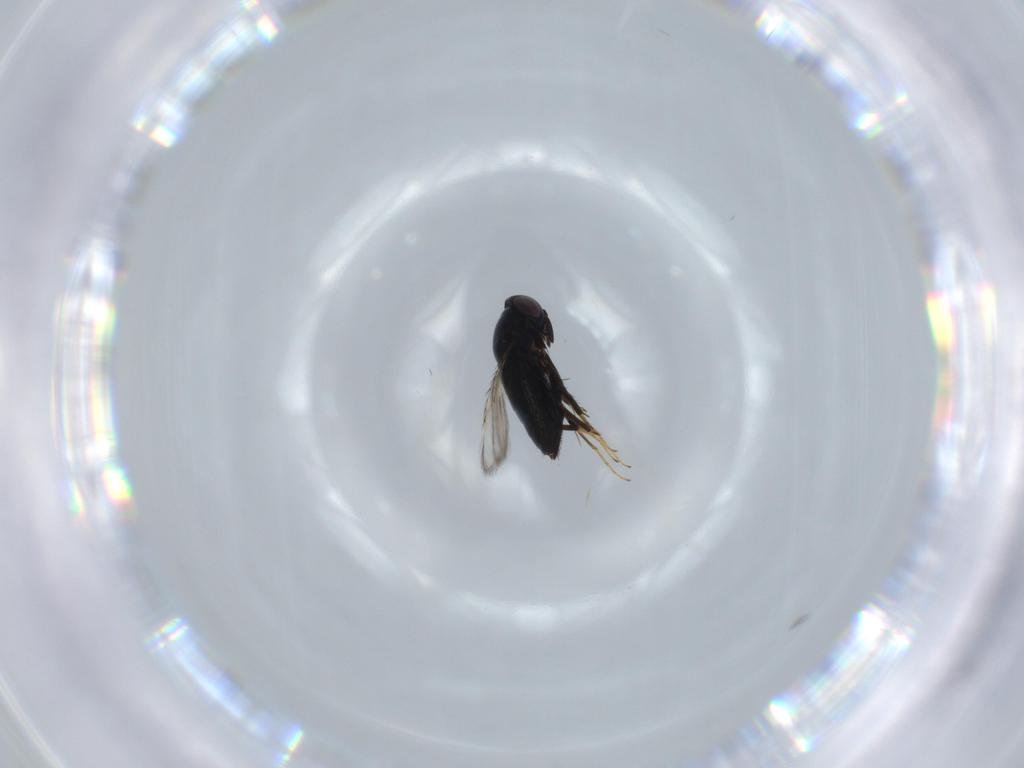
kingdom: Animalia
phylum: Arthropoda
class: Insecta
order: Hymenoptera
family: Signiphoridae
